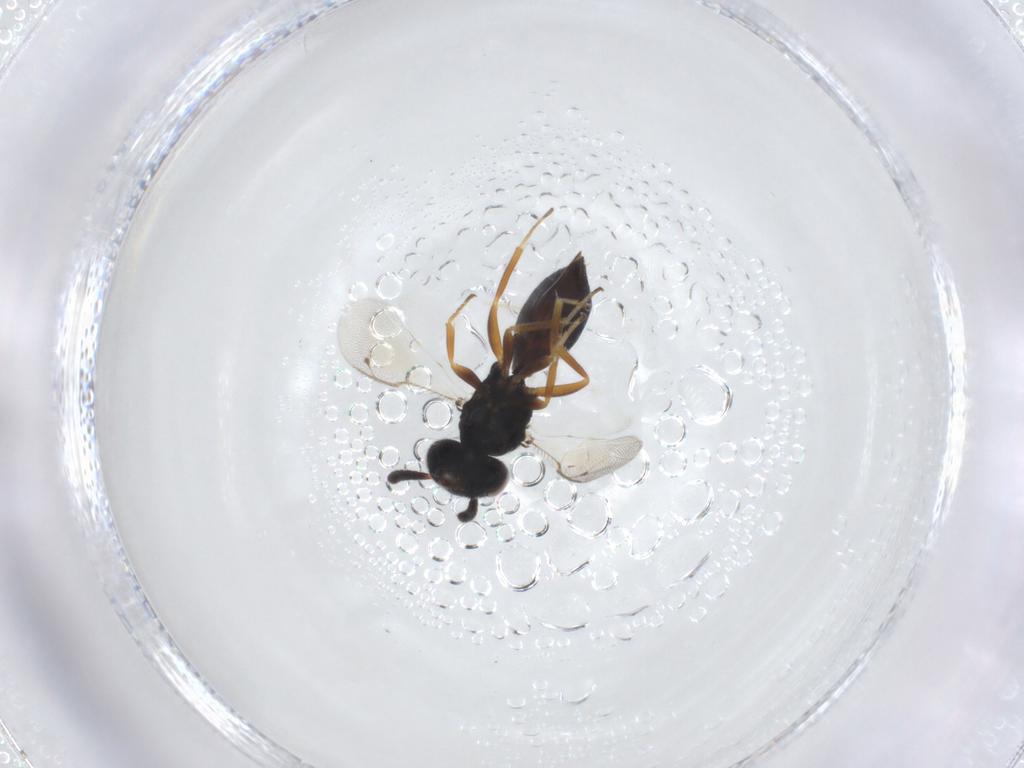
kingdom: Animalia
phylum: Arthropoda
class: Insecta
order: Hymenoptera
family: Pteromalidae
